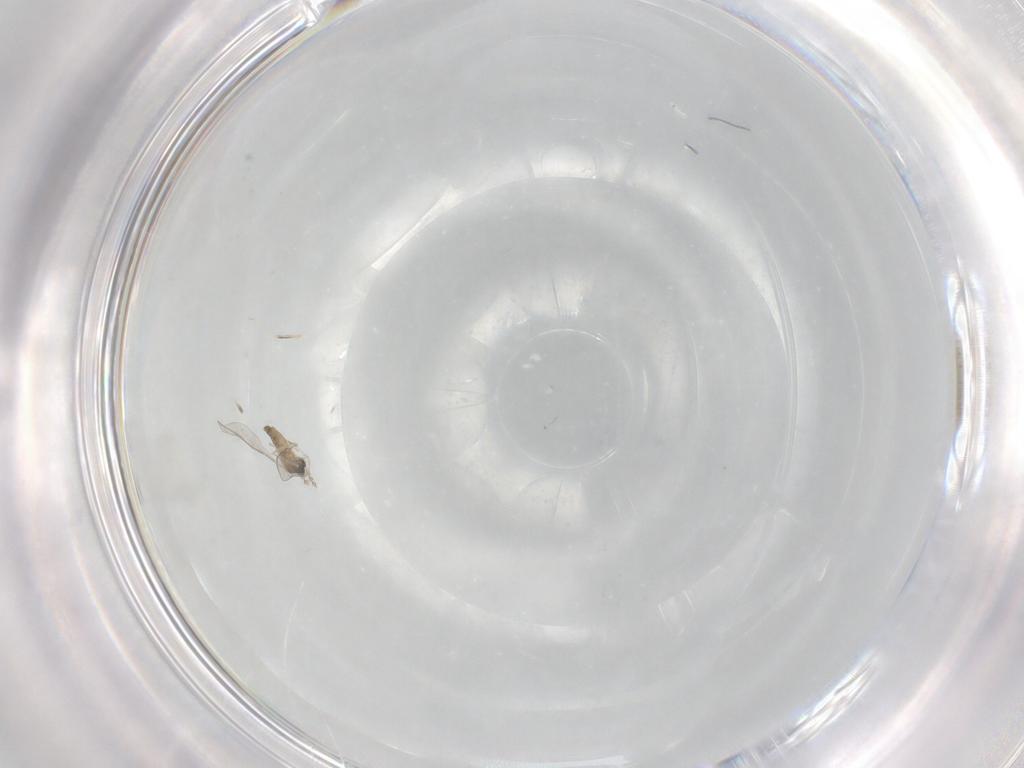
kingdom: Animalia
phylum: Arthropoda
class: Insecta
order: Diptera
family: Cecidomyiidae
